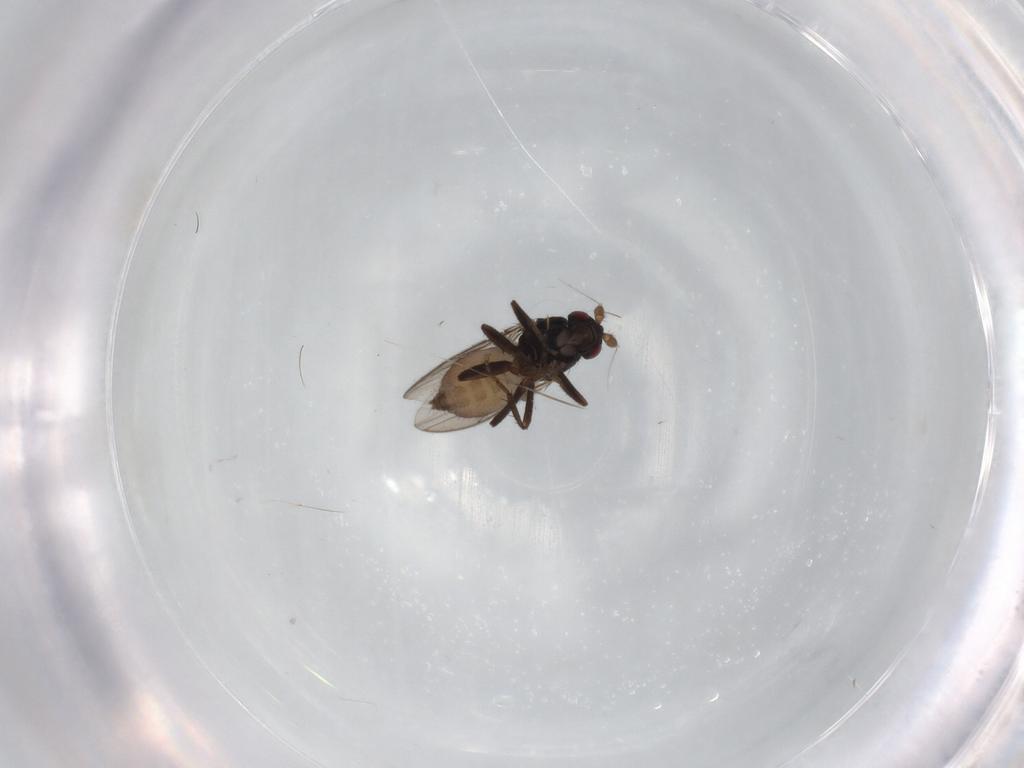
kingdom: Animalia
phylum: Arthropoda
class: Insecta
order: Diptera
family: Sphaeroceridae
